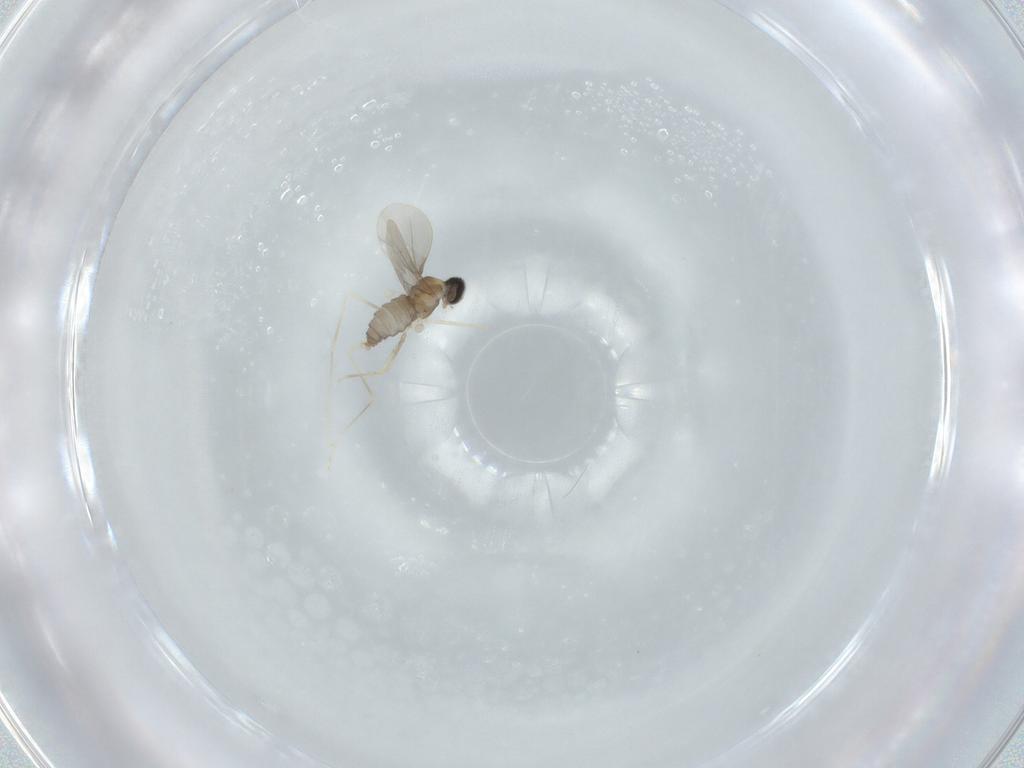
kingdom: Animalia
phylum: Arthropoda
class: Insecta
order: Diptera
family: Cecidomyiidae
